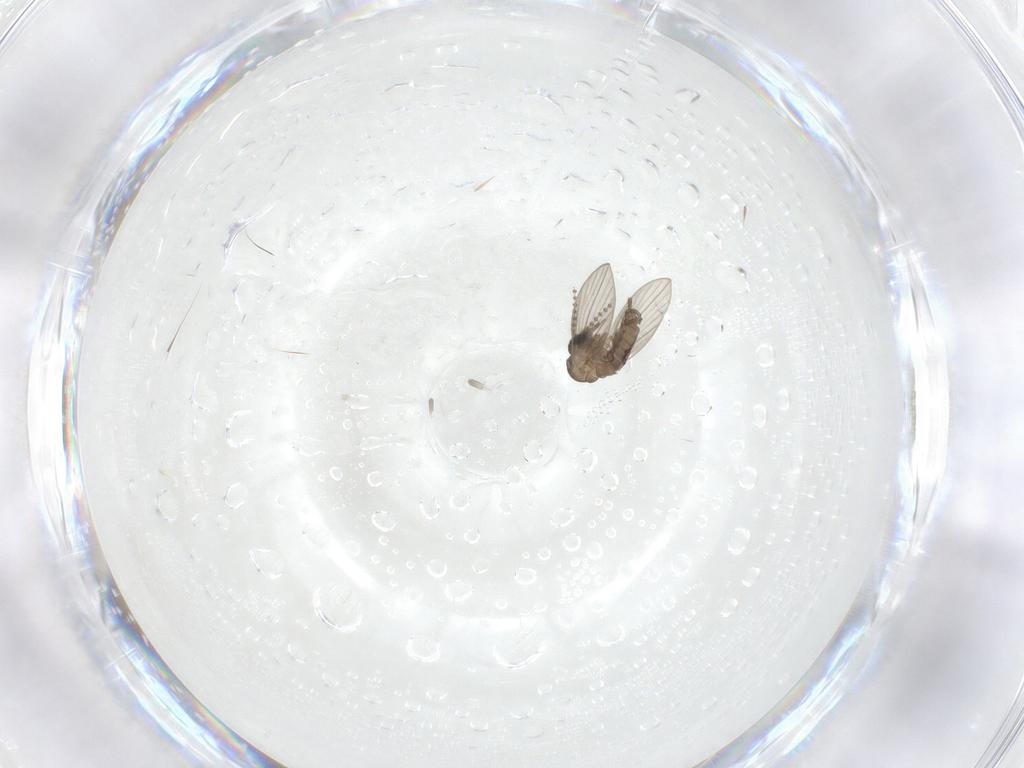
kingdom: Animalia
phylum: Arthropoda
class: Insecta
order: Diptera
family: Psychodidae
